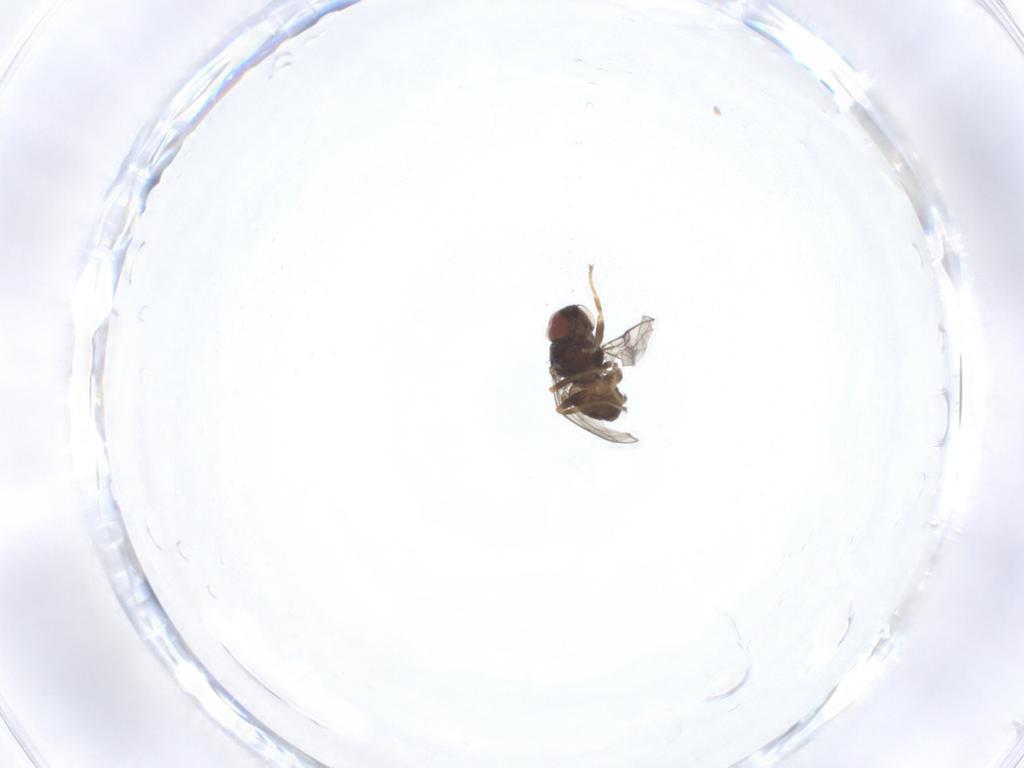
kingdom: Animalia
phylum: Arthropoda
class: Insecta
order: Diptera
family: Chloropidae
